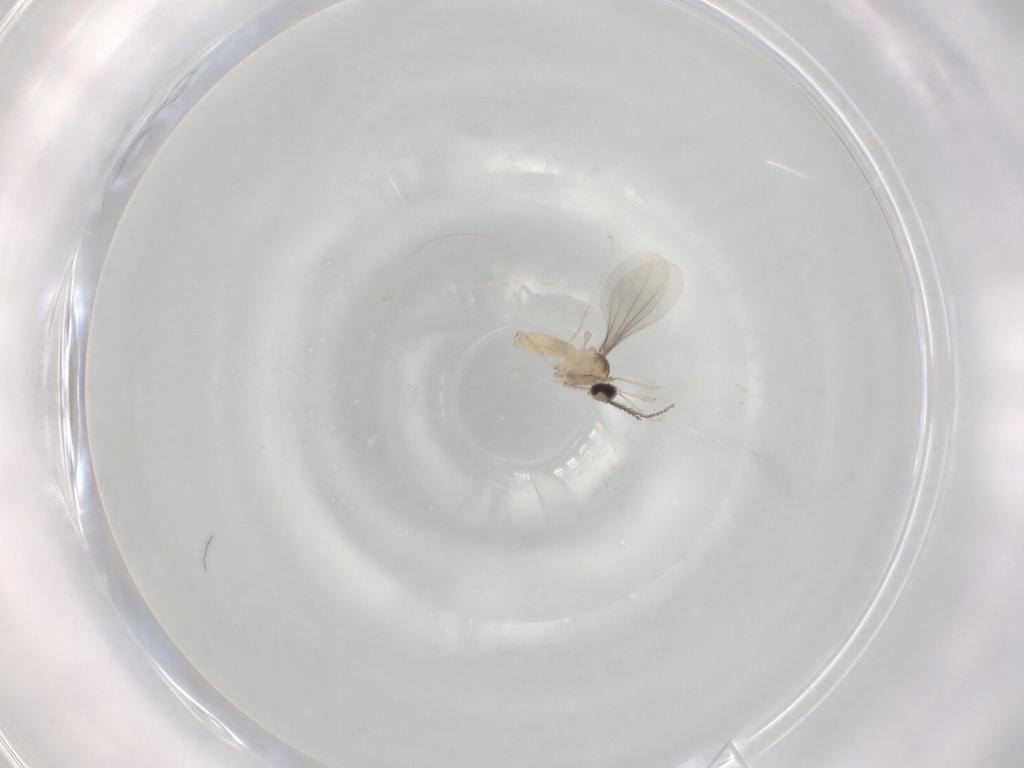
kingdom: Animalia
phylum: Arthropoda
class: Insecta
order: Diptera
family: Cecidomyiidae
